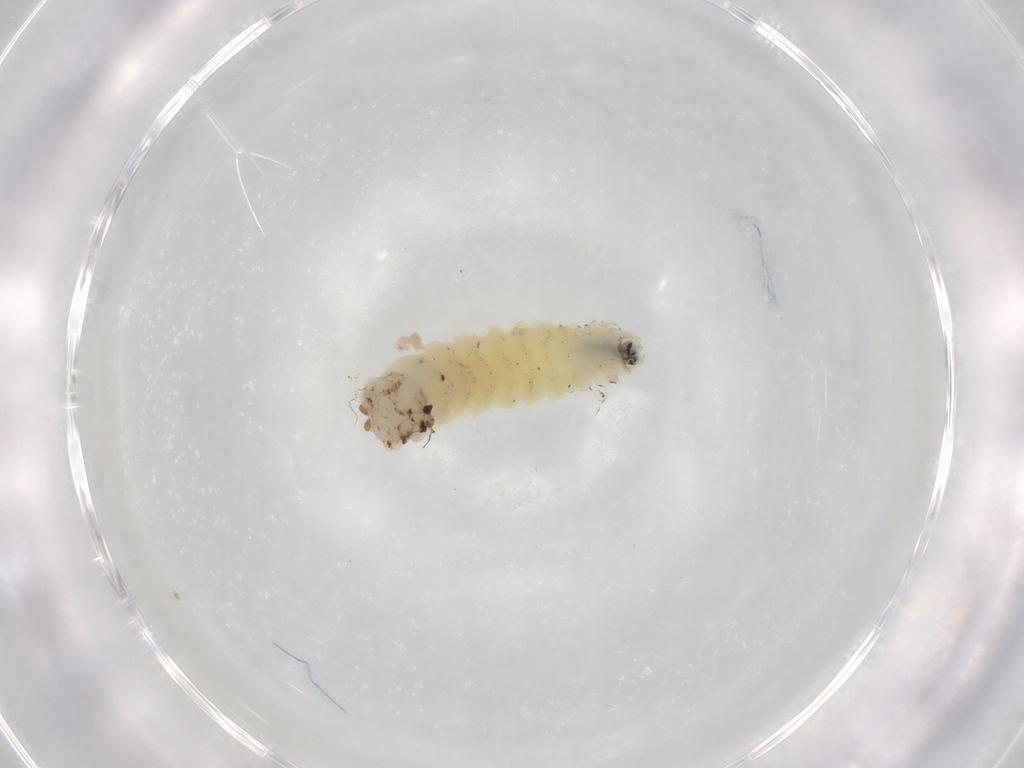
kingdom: Animalia
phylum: Arthropoda
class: Insecta
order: Diptera
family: Anthomyiidae
